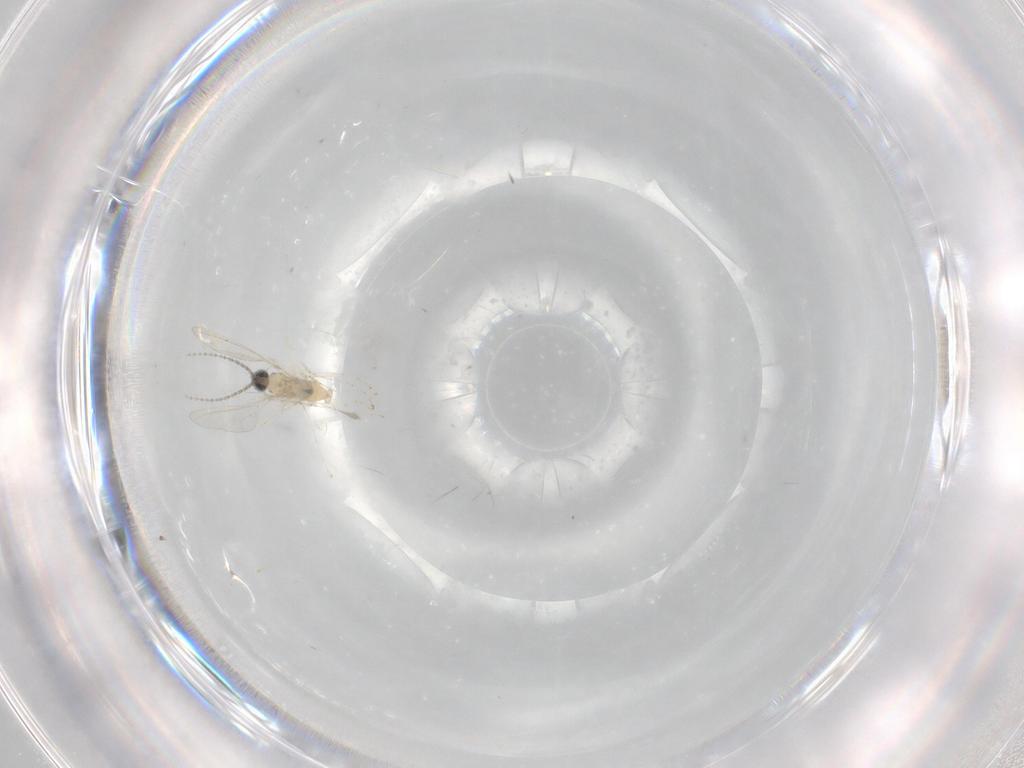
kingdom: Animalia
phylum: Arthropoda
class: Insecta
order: Diptera
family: Cecidomyiidae
